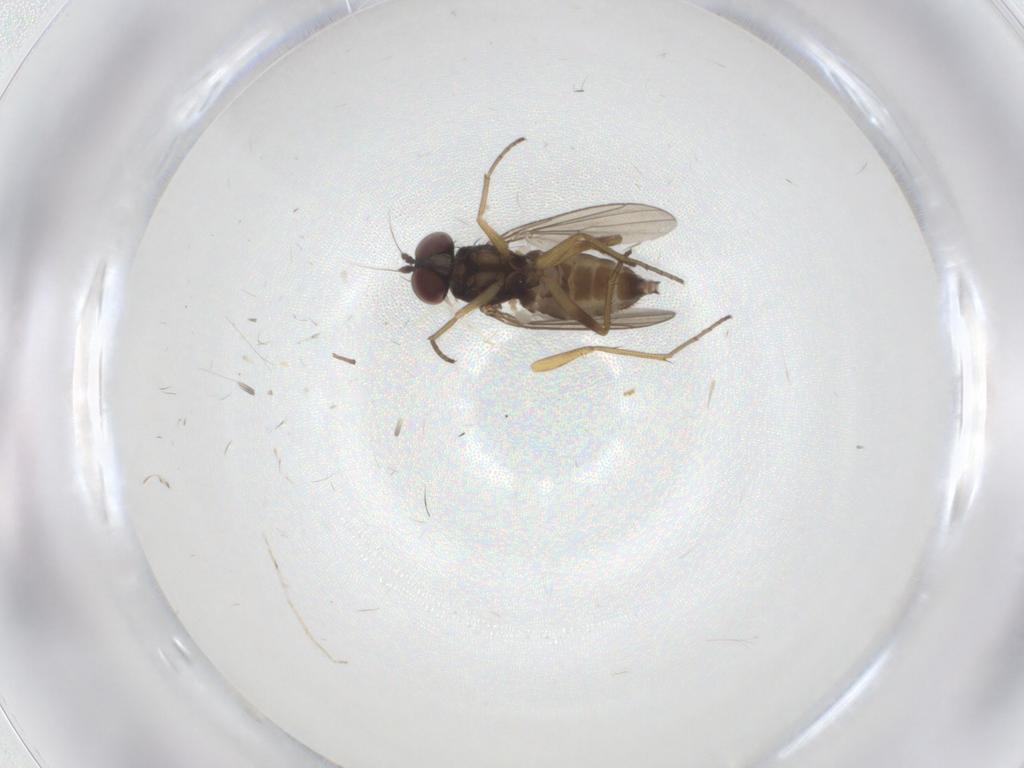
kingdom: Animalia
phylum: Arthropoda
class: Insecta
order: Diptera
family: Dolichopodidae
